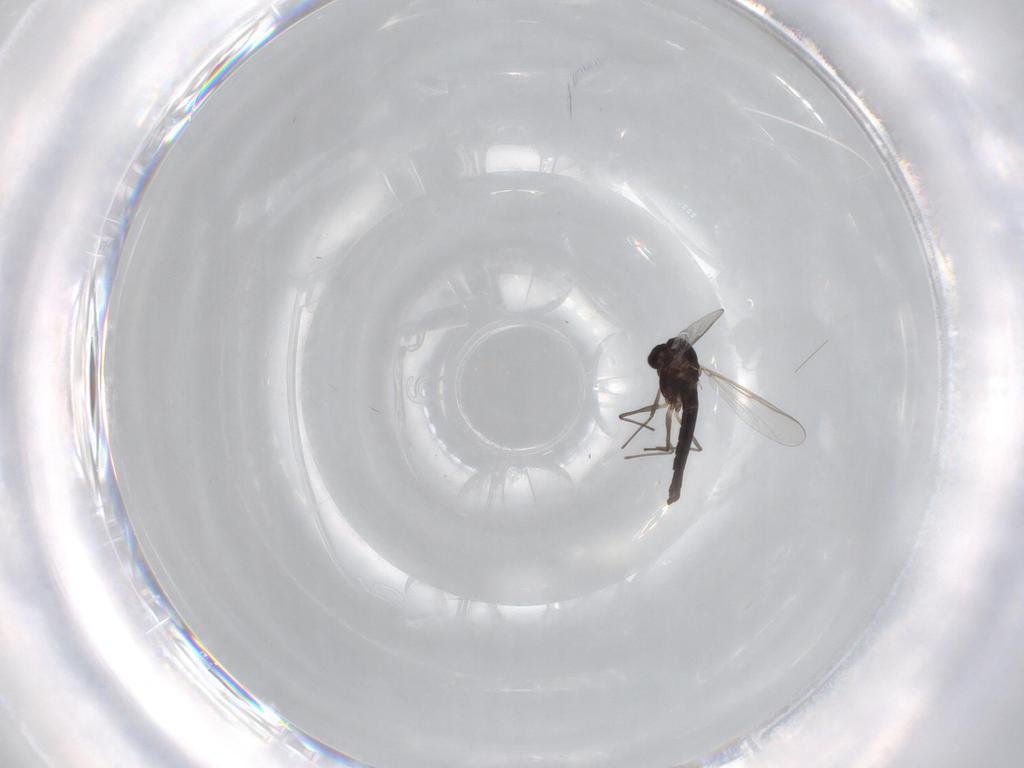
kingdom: Animalia
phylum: Arthropoda
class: Insecta
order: Diptera
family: Chironomidae
